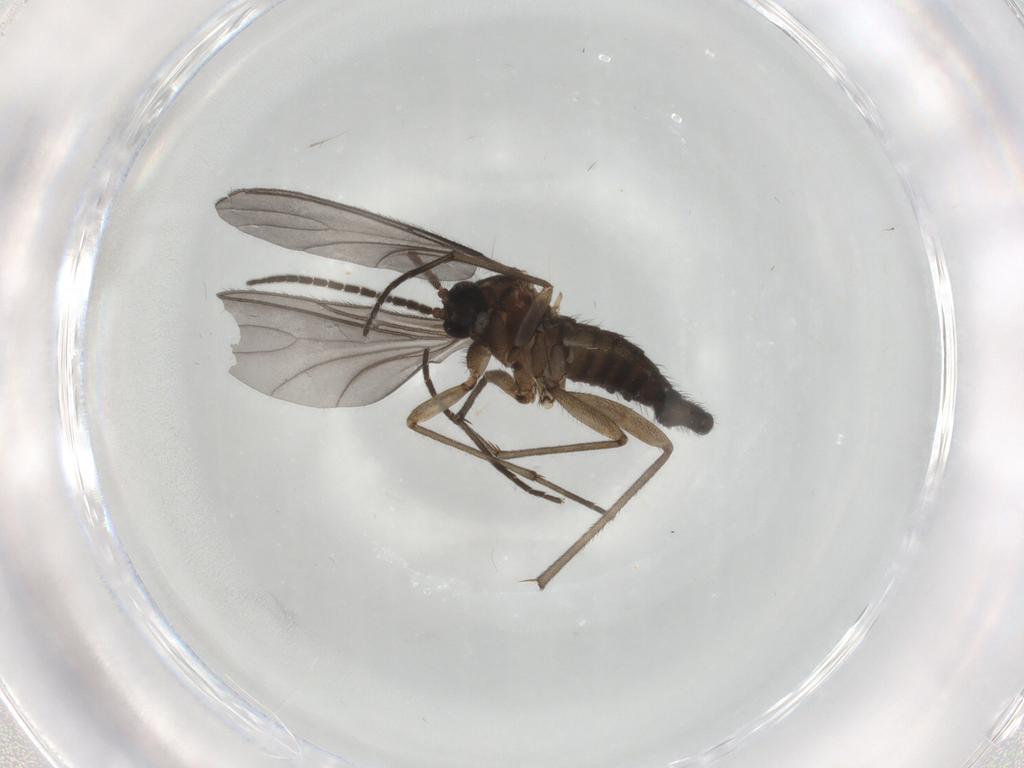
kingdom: Animalia
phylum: Arthropoda
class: Insecta
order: Diptera
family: Sciaridae
